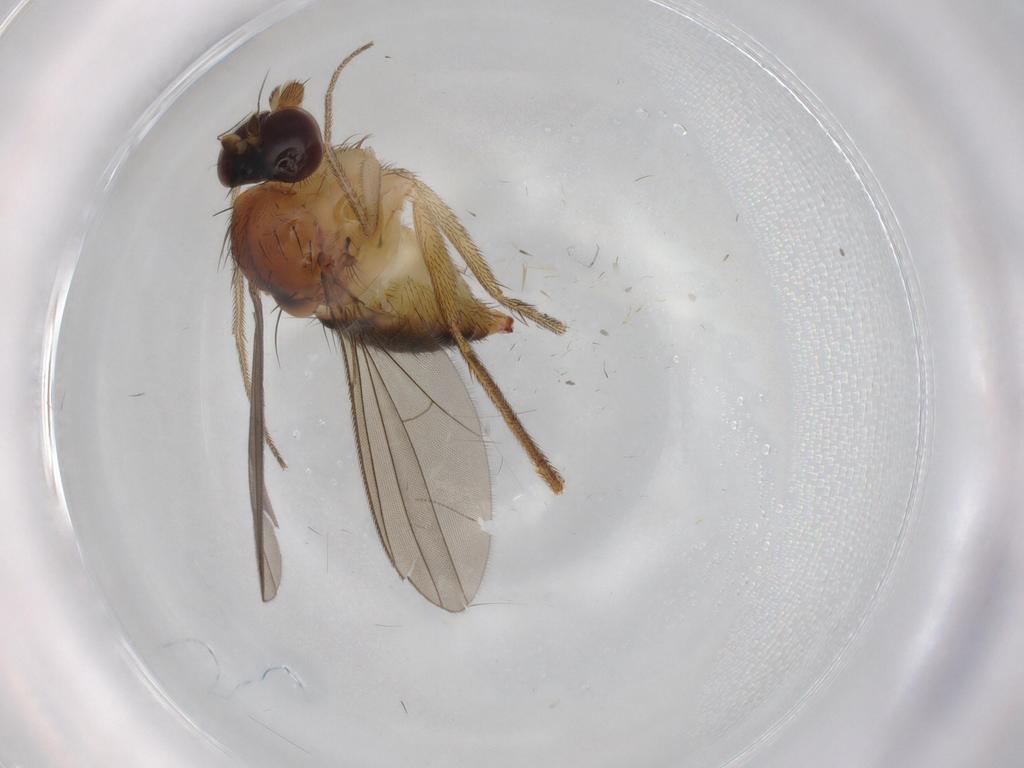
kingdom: Animalia
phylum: Arthropoda
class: Insecta
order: Diptera
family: Dolichopodidae
